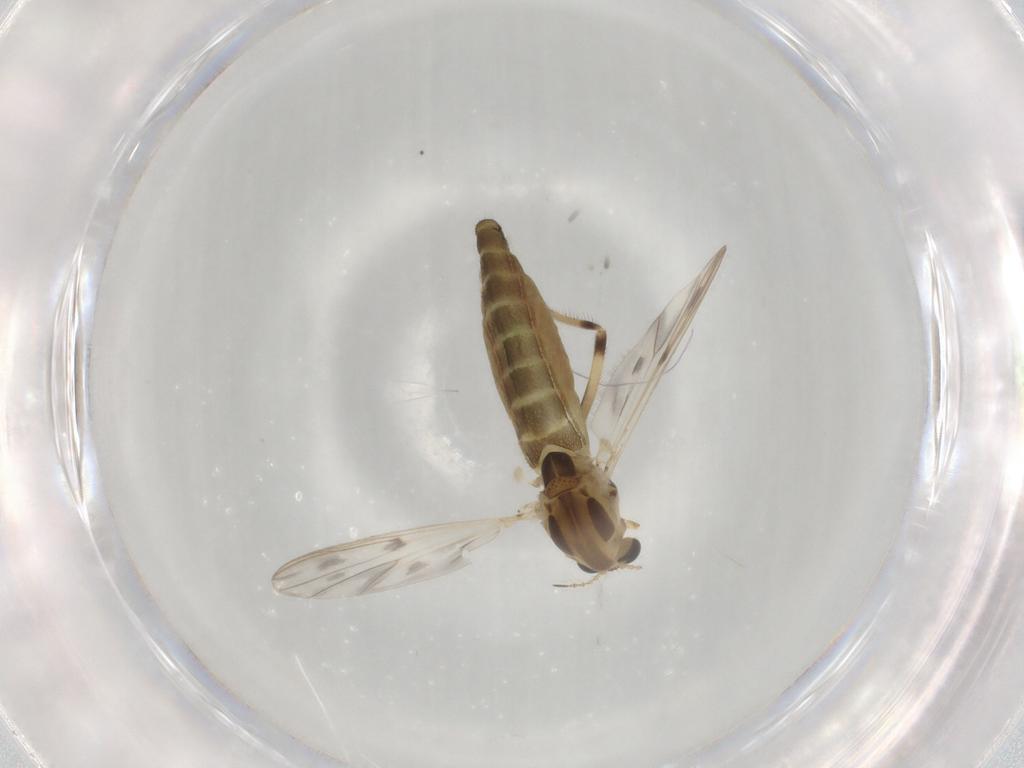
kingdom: Animalia
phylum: Arthropoda
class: Insecta
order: Diptera
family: Chironomidae
